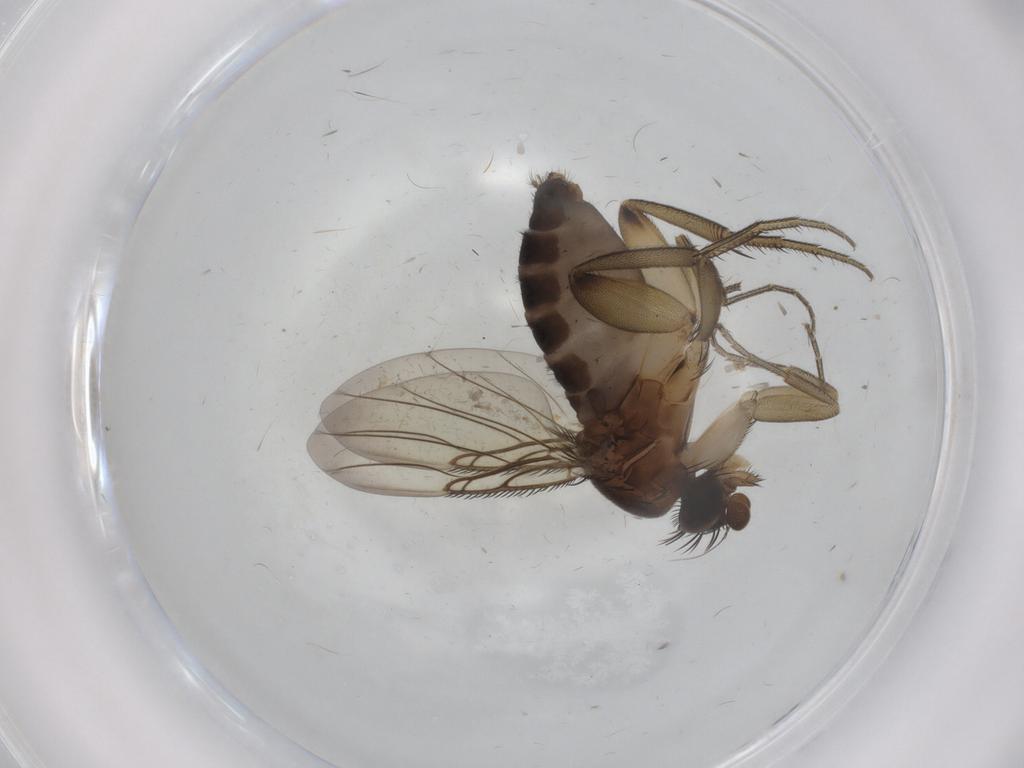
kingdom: Animalia
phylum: Arthropoda
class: Insecta
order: Diptera
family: Phoridae
